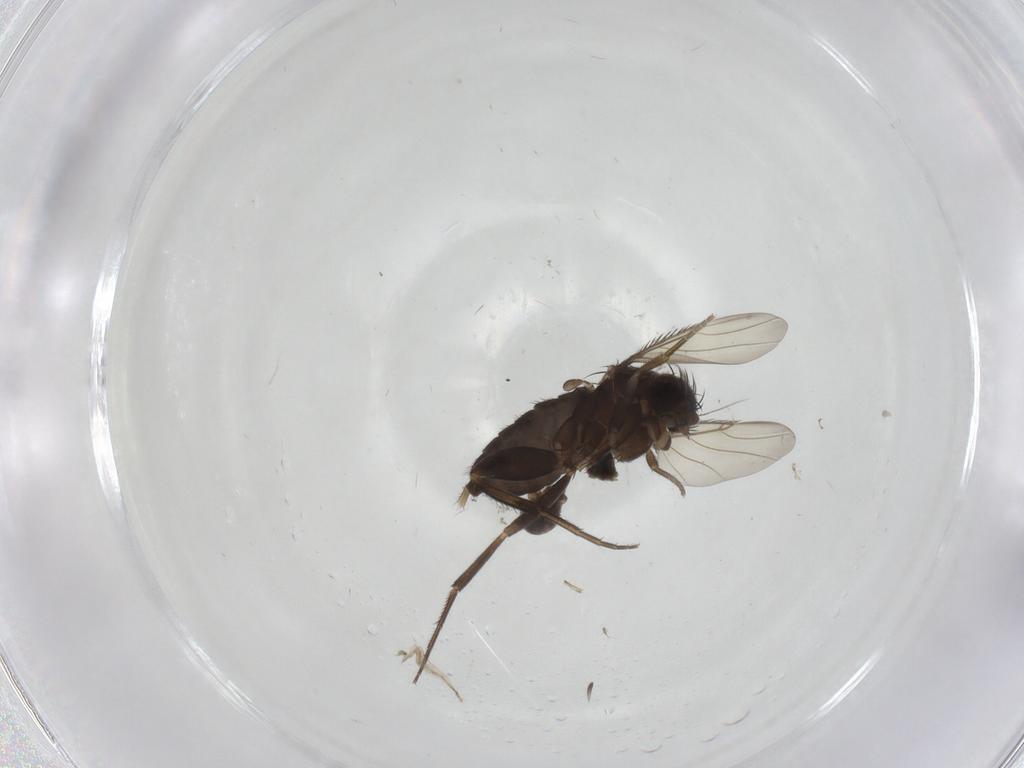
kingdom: Animalia
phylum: Arthropoda
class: Insecta
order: Diptera
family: Phoridae
